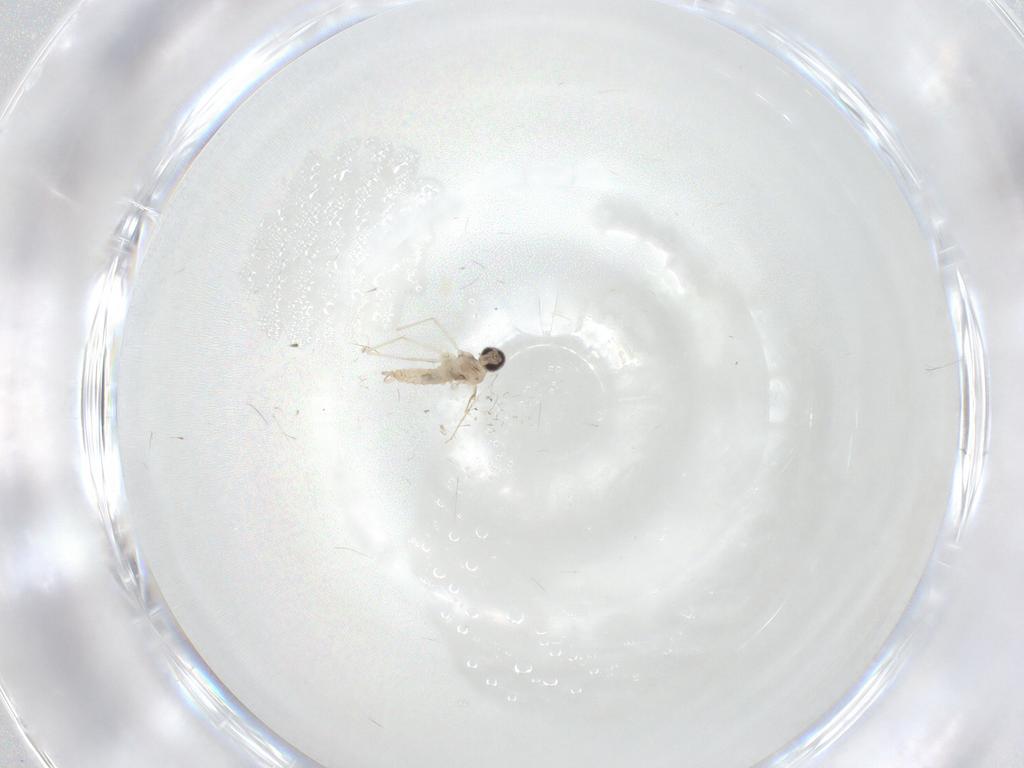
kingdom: Animalia
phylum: Arthropoda
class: Insecta
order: Diptera
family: Cecidomyiidae
